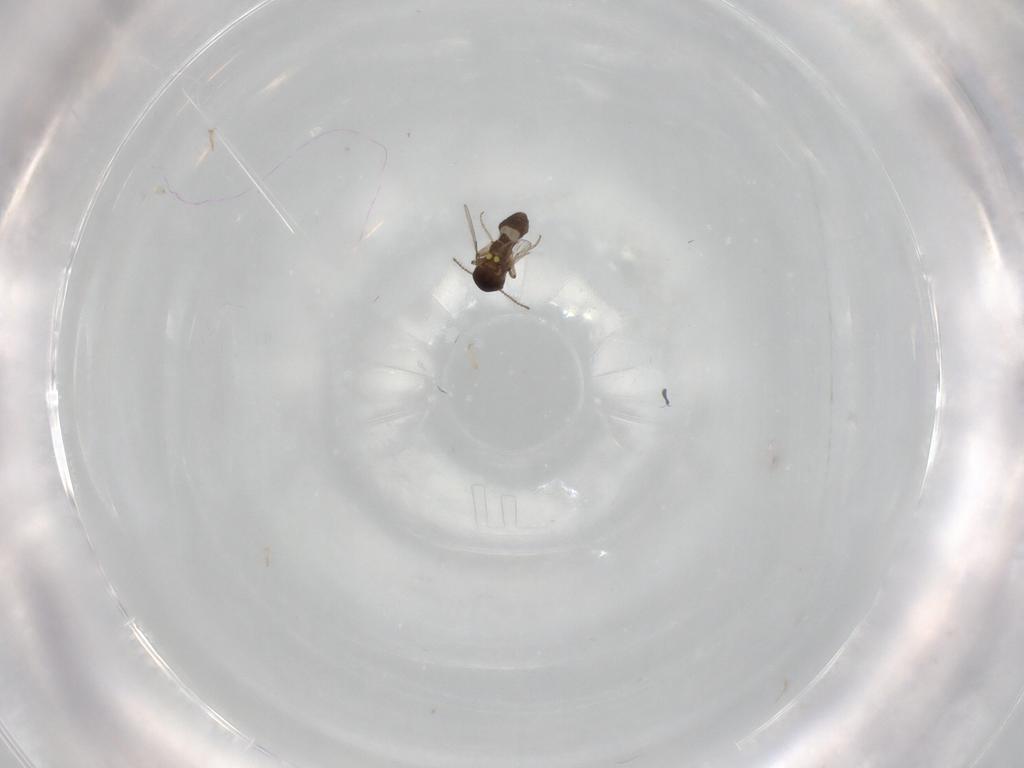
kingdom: Animalia
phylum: Arthropoda
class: Insecta
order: Diptera
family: Ceratopogonidae
